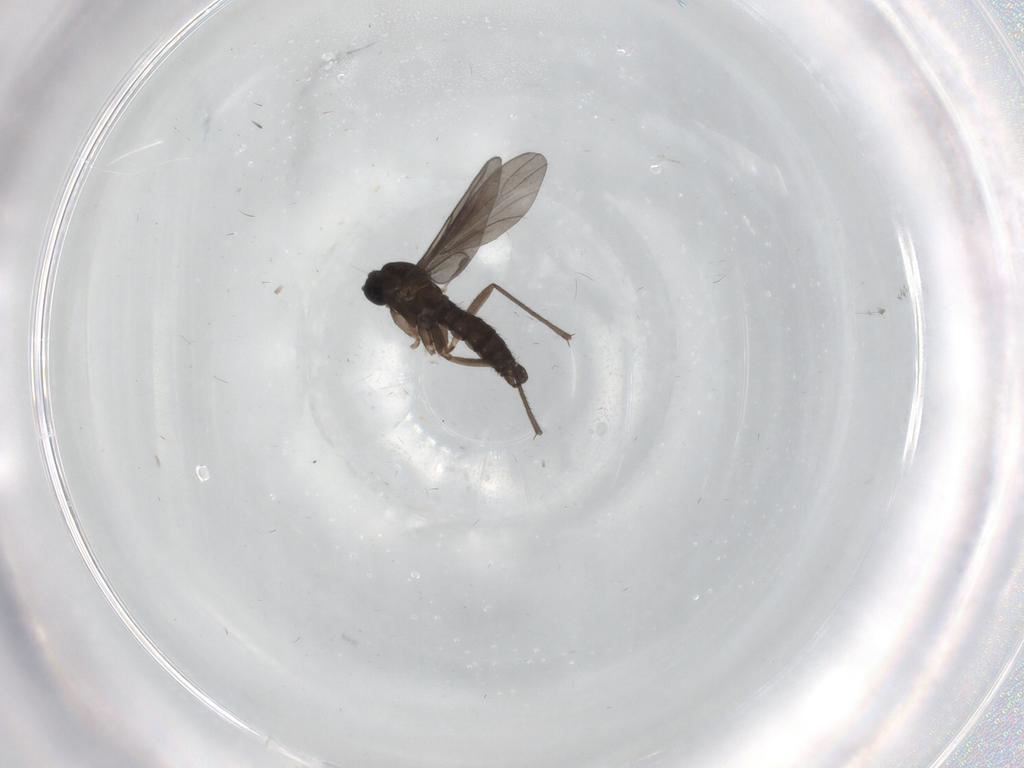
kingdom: Animalia
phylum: Arthropoda
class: Insecta
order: Diptera
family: Sciaridae
